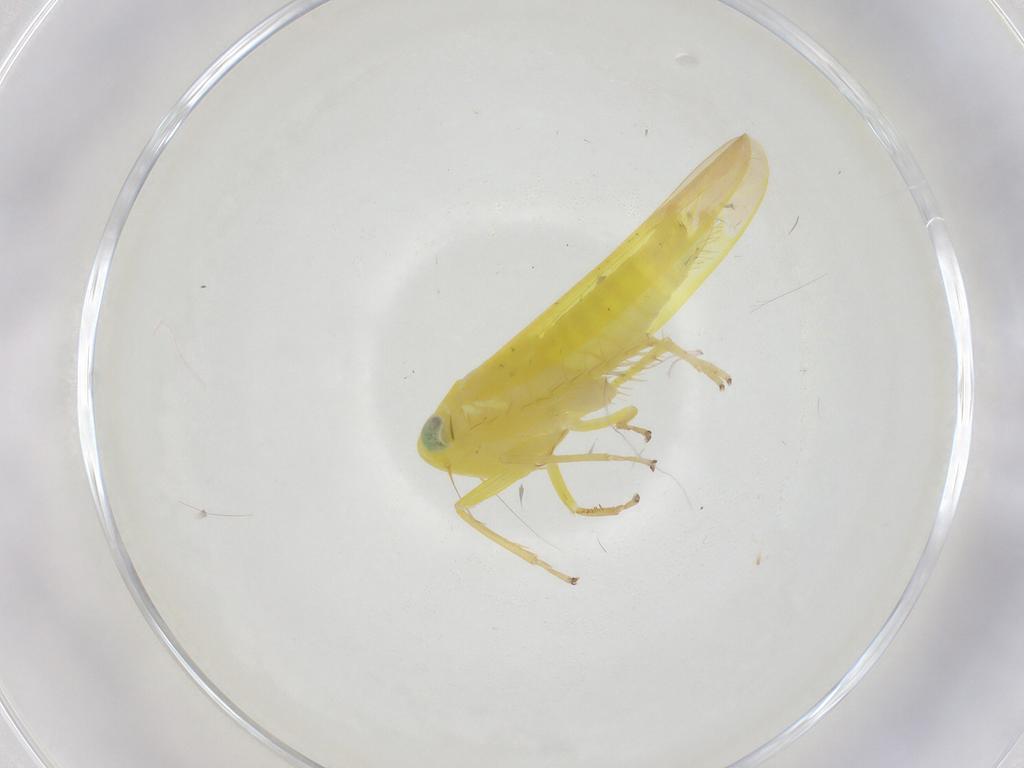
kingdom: Animalia
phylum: Arthropoda
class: Insecta
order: Hemiptera
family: Cicadellidae
